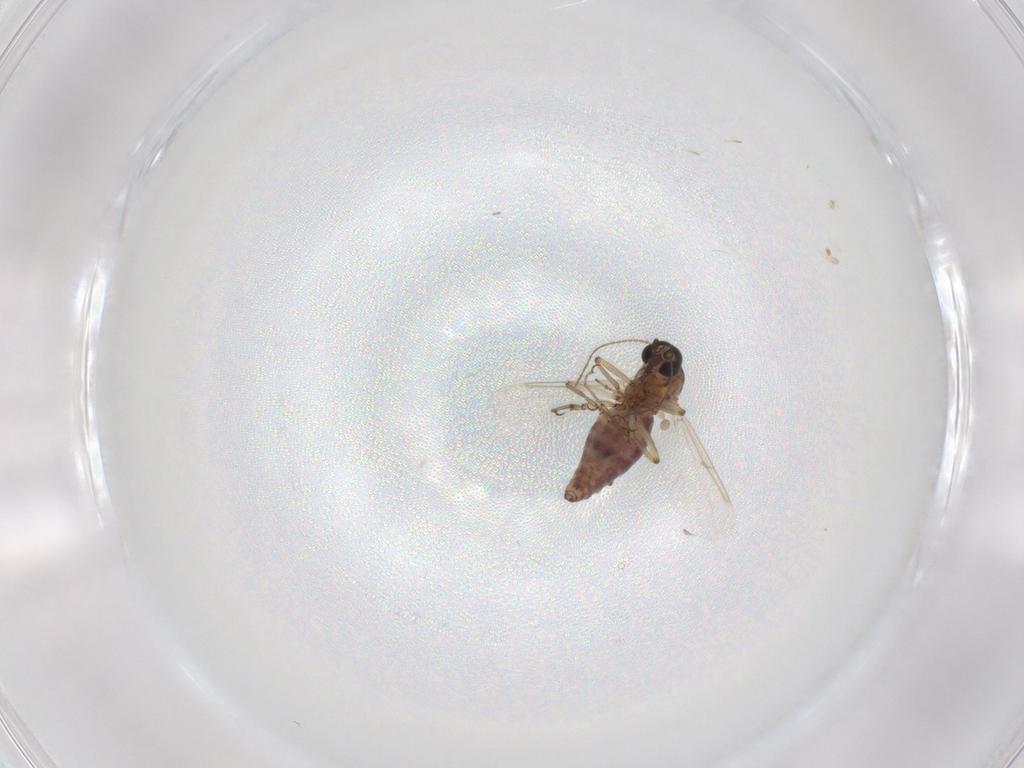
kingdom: Animalia
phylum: Arthropoda
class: Insecta
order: Diptera
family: Ceratopogonidae
